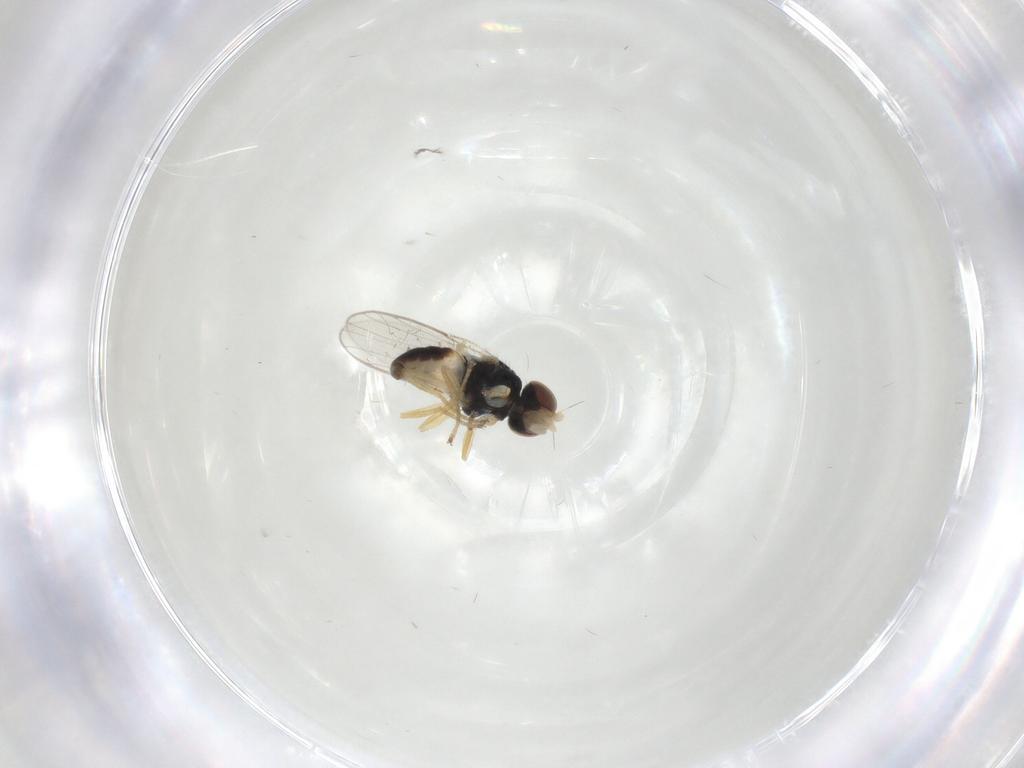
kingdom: Animalia
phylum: Arthropoda
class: Insecta
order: Diptera
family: Chloropidae
